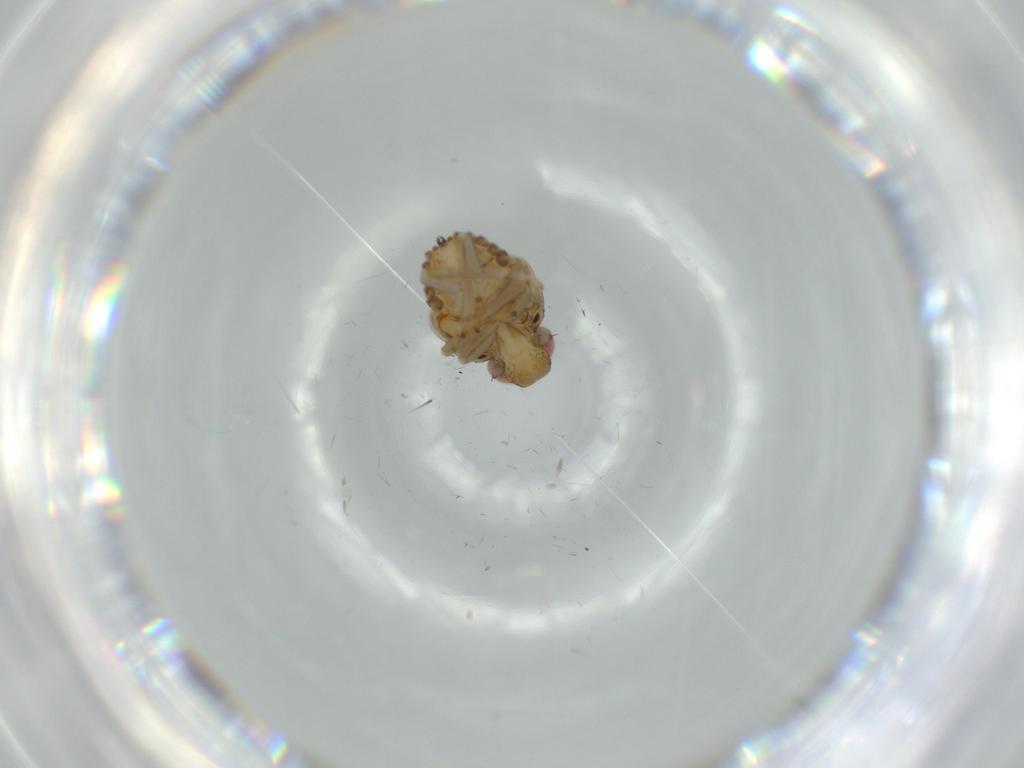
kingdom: Animalia
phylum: Arthropoda
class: Insecta
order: Hemiptera
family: Issidae
